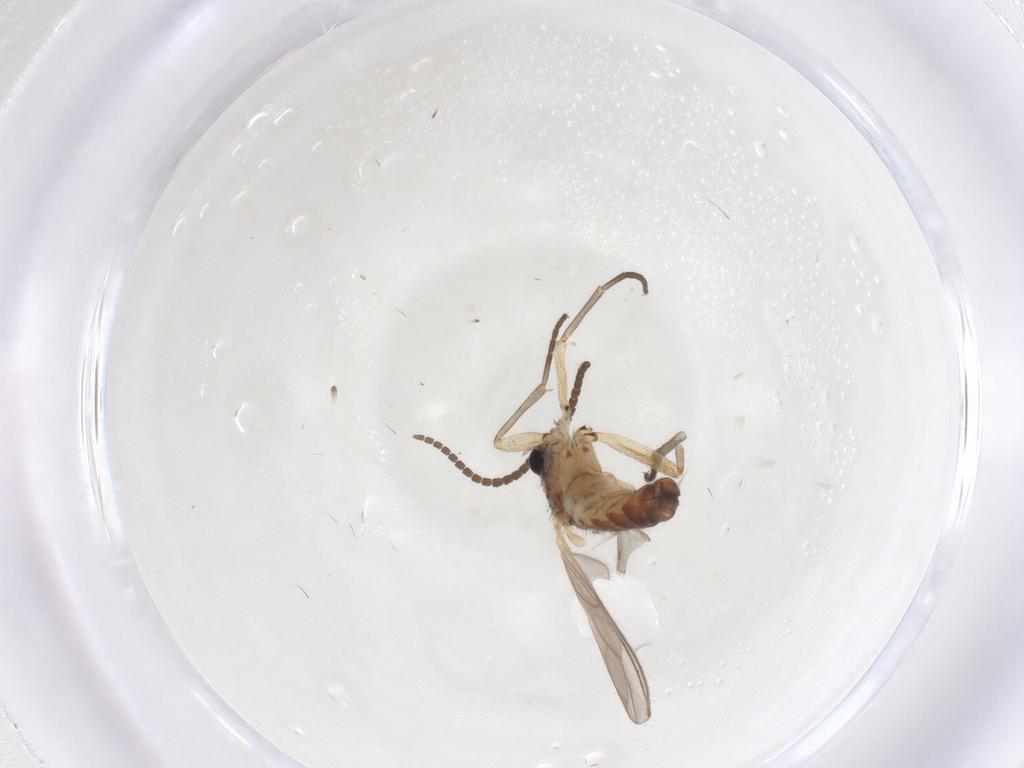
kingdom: Animalia
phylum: Arthropoda
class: Insecta
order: Diptera
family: Sciaridae
